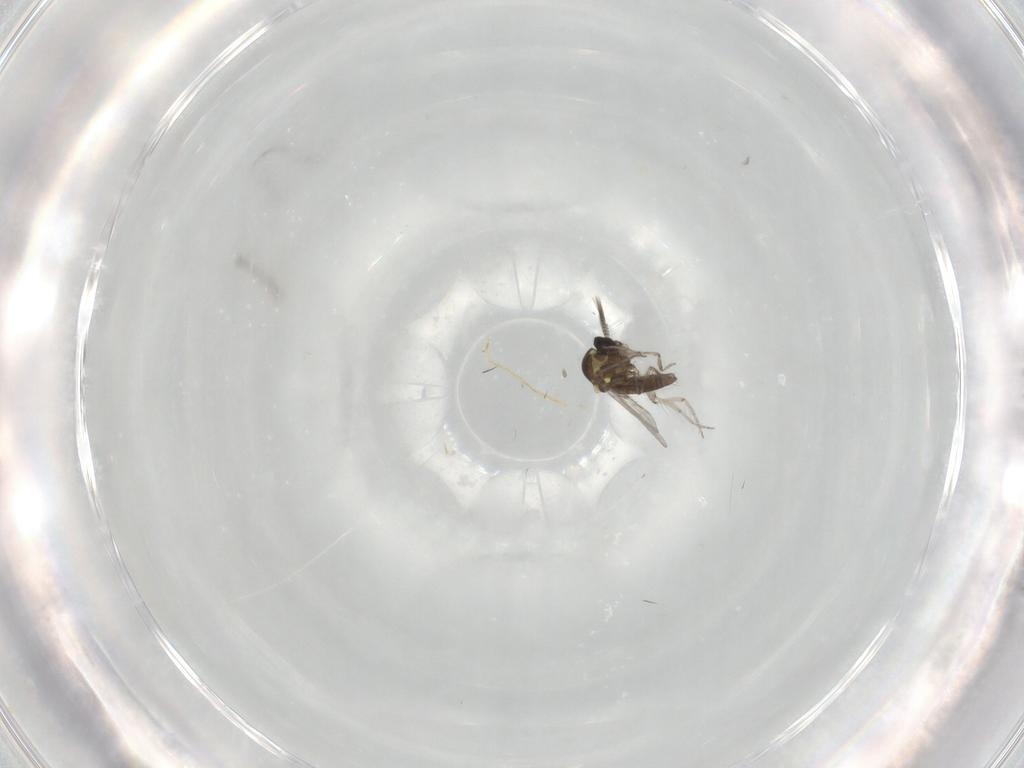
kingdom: Animalia
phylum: Arthropoda
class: Insecta
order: Diptera
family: Ceratopogonidae
